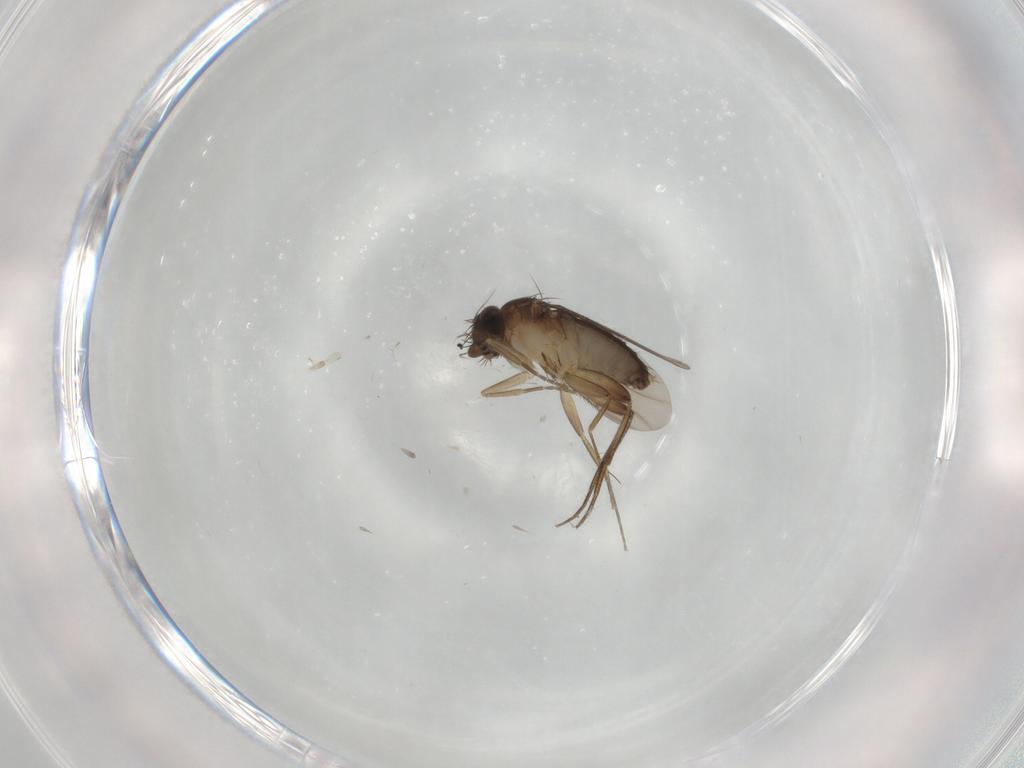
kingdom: Animalia
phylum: Arthropoda
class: Insecta
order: Diptera
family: Phoridae
